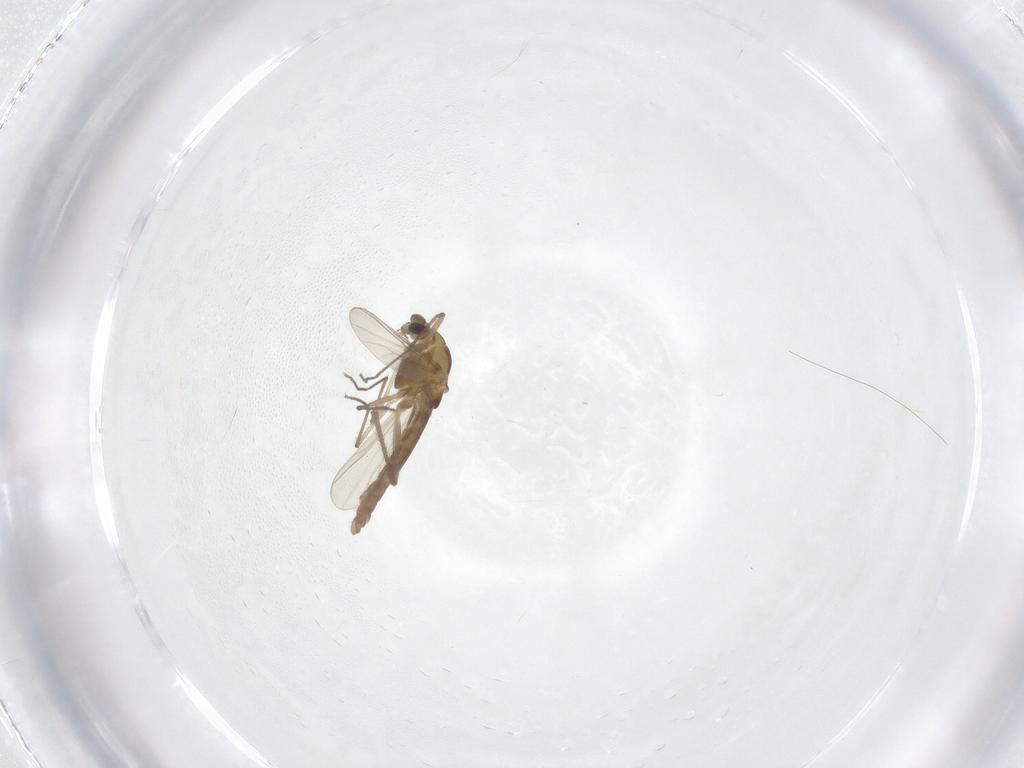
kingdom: Animalia
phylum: Arthropoda
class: Insecta
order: Diptera
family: Chironomidae
